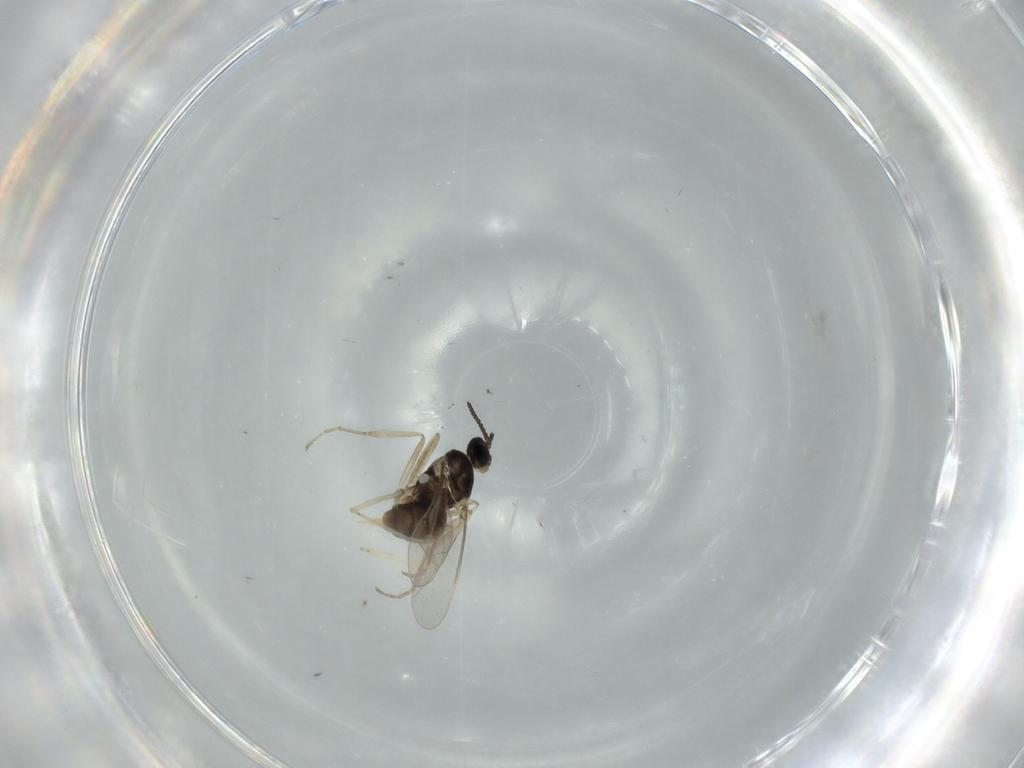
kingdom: Animalia
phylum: Arthropoda
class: Insecta
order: Diptera
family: Cecidomyiidae
